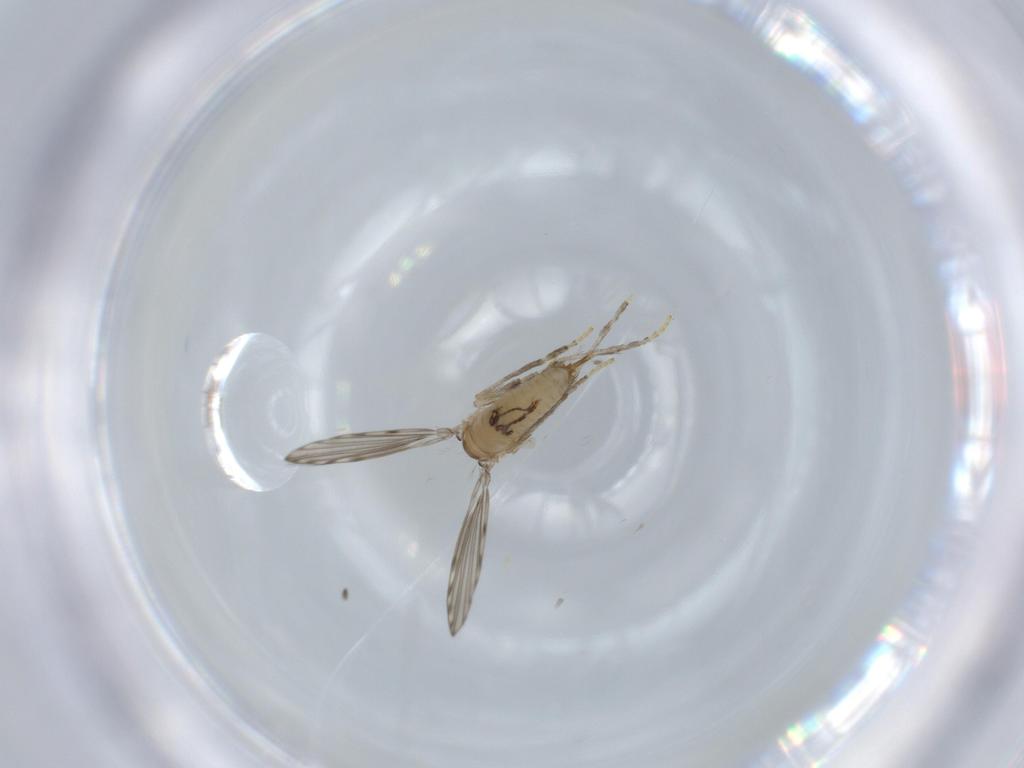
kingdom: Animalia
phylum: Arthropoda
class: Insecta
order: Diptera
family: Psychodidae
